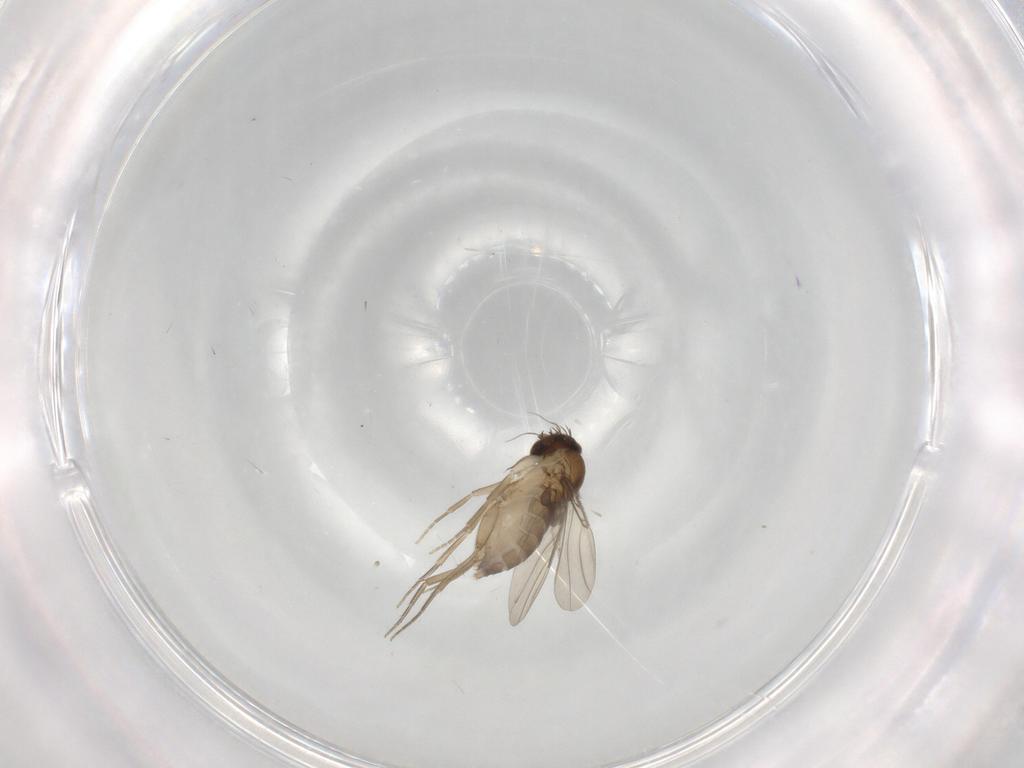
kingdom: Animalia
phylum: Arthropoda
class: Insecta
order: Diptera
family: Phoridae
